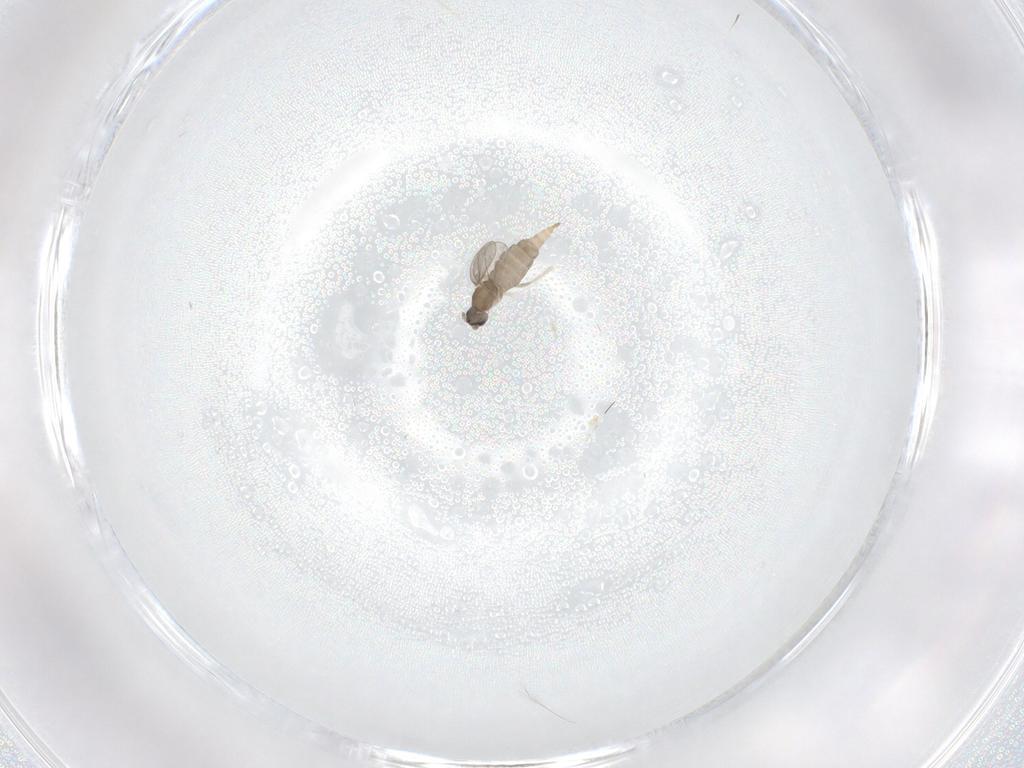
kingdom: Animalia
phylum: Arthropoda
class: Insecta
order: Diptera
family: Cecidomyiidae
